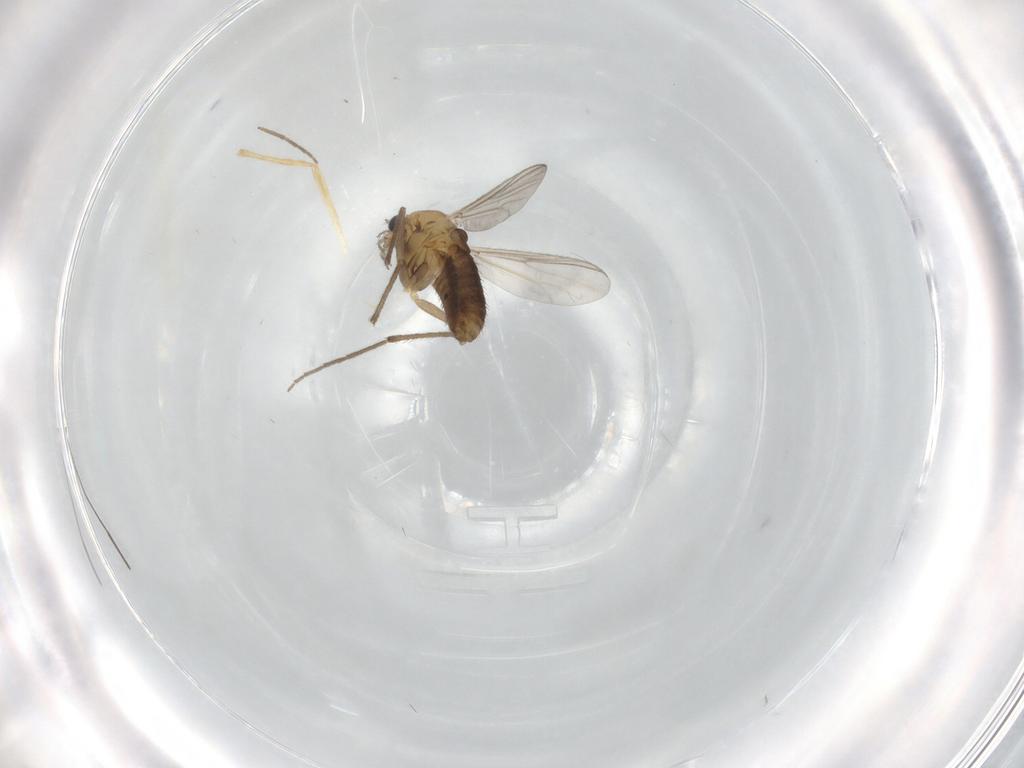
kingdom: Animalia
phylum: Arthropoda
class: Insecta
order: Diptera
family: Chironomidae
